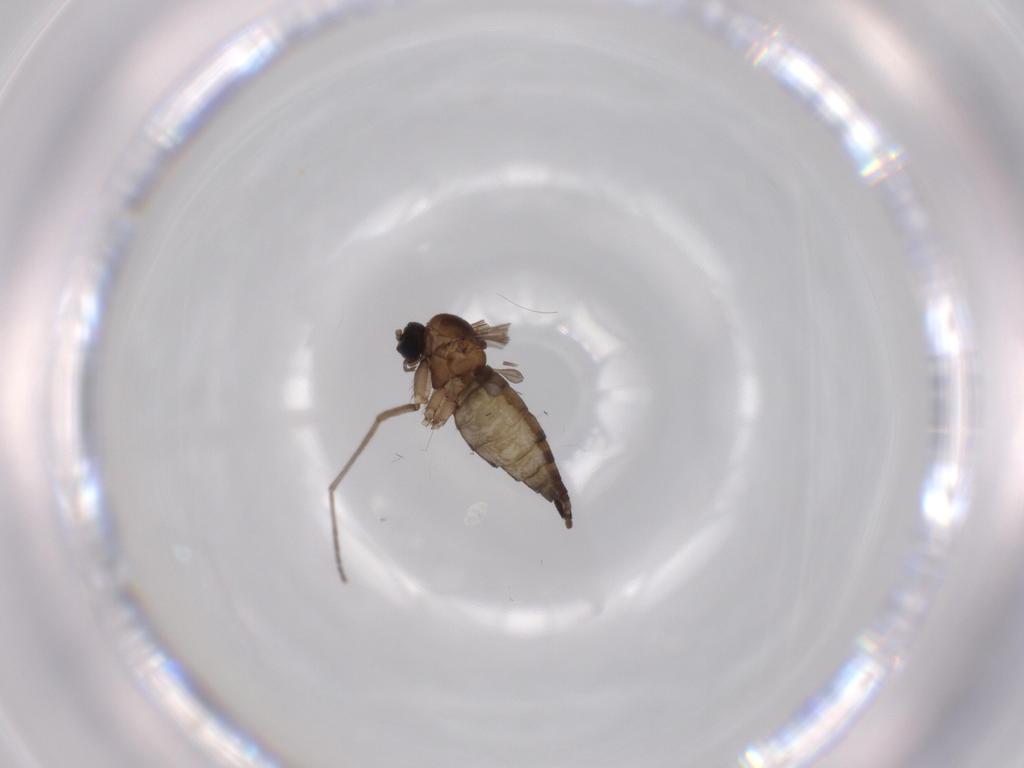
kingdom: Animalia
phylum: Arthropoda
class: Insecta
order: Diptera
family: Sciaridae
